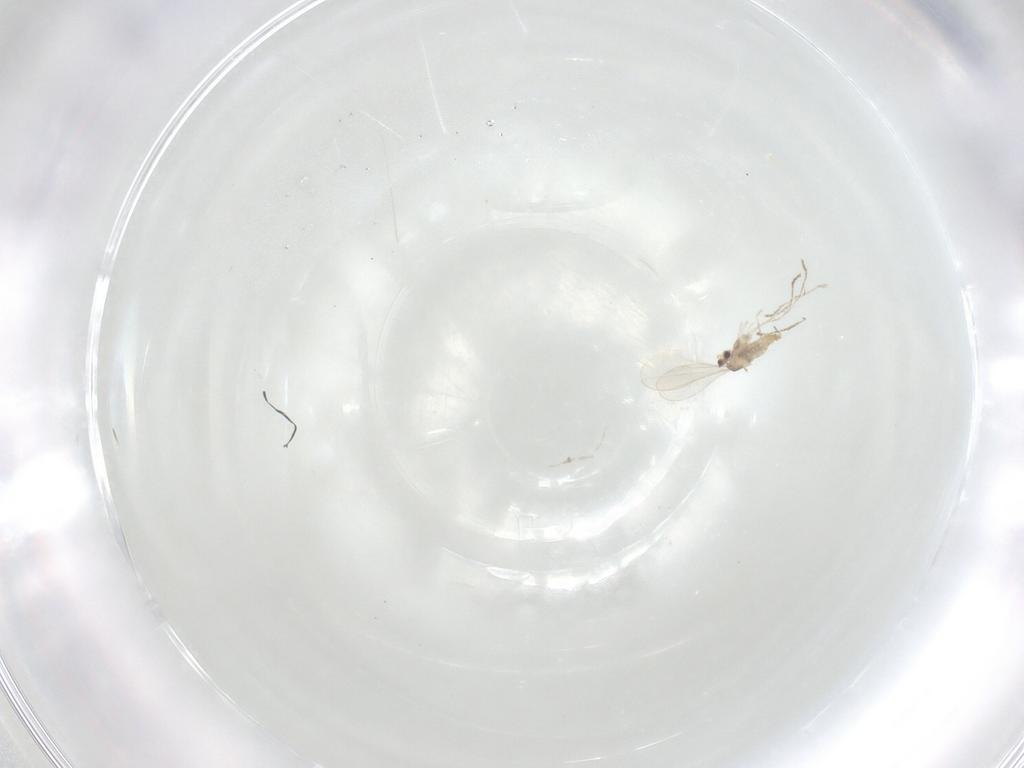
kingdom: Animalia
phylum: Arthropoda
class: Insecta
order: Diptera
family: Cecidomyiidae
